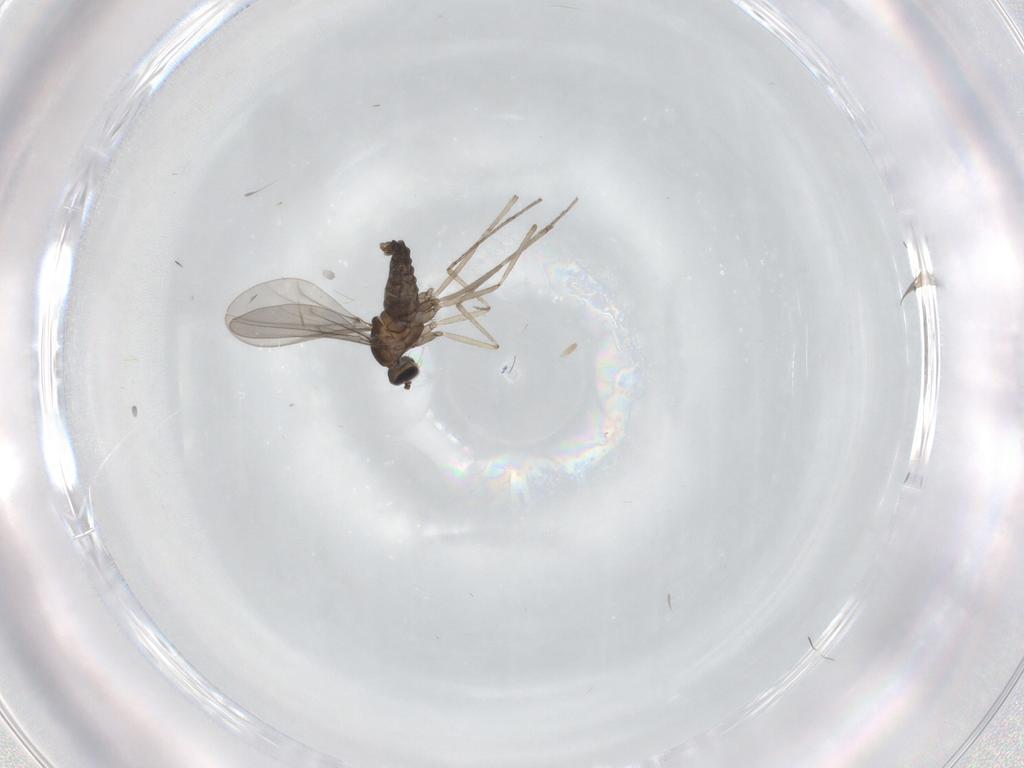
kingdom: Animalia
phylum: Arthropoda
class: Insecta
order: Diptera
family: Cecidomyiidae
